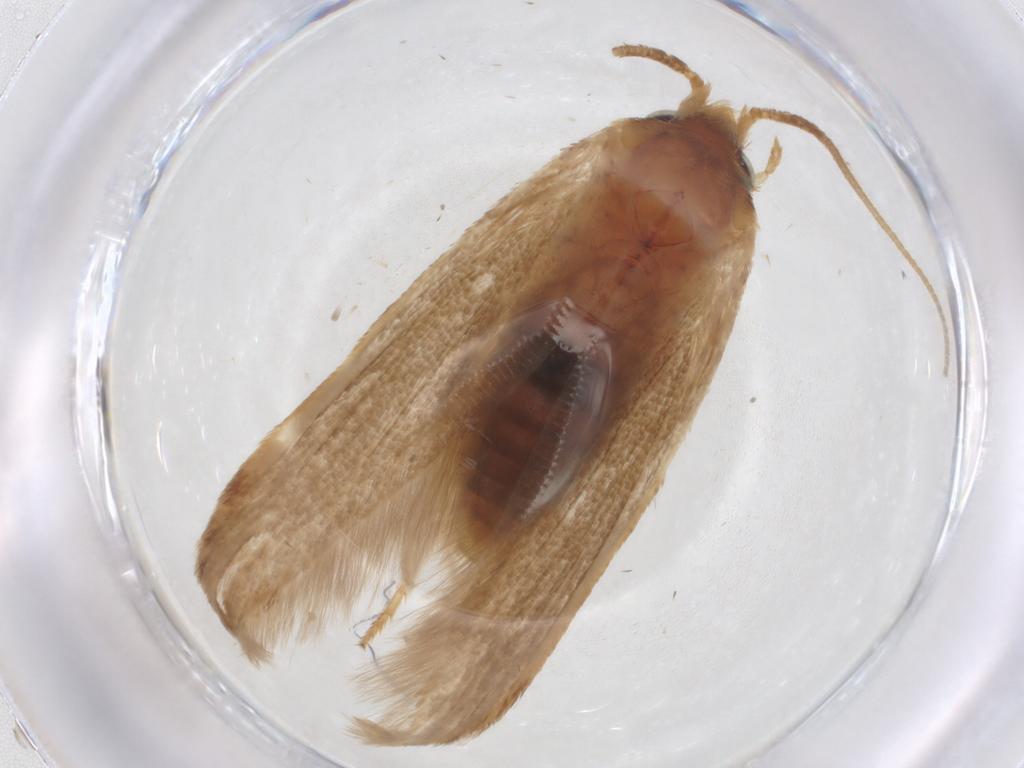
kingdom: Animalia
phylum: Arthropoda
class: Insecta
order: Lepidoptera
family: Blastobasidae
